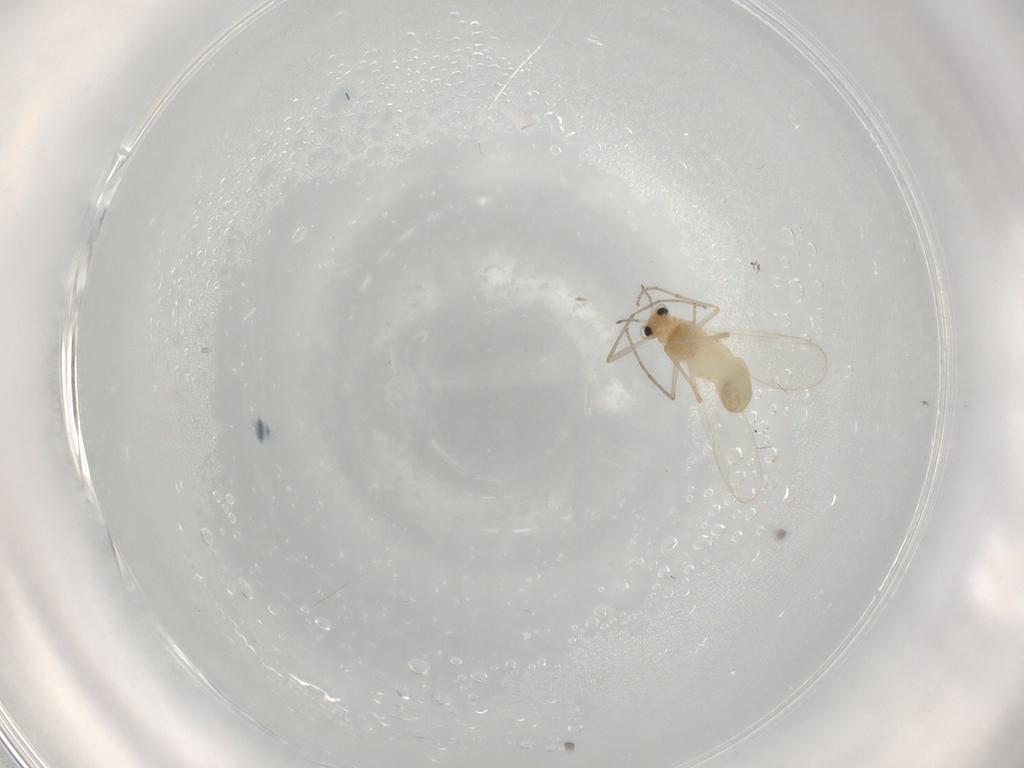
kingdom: Animalia
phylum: Arthropoda
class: Insecta
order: Diptera
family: Chironomidae
